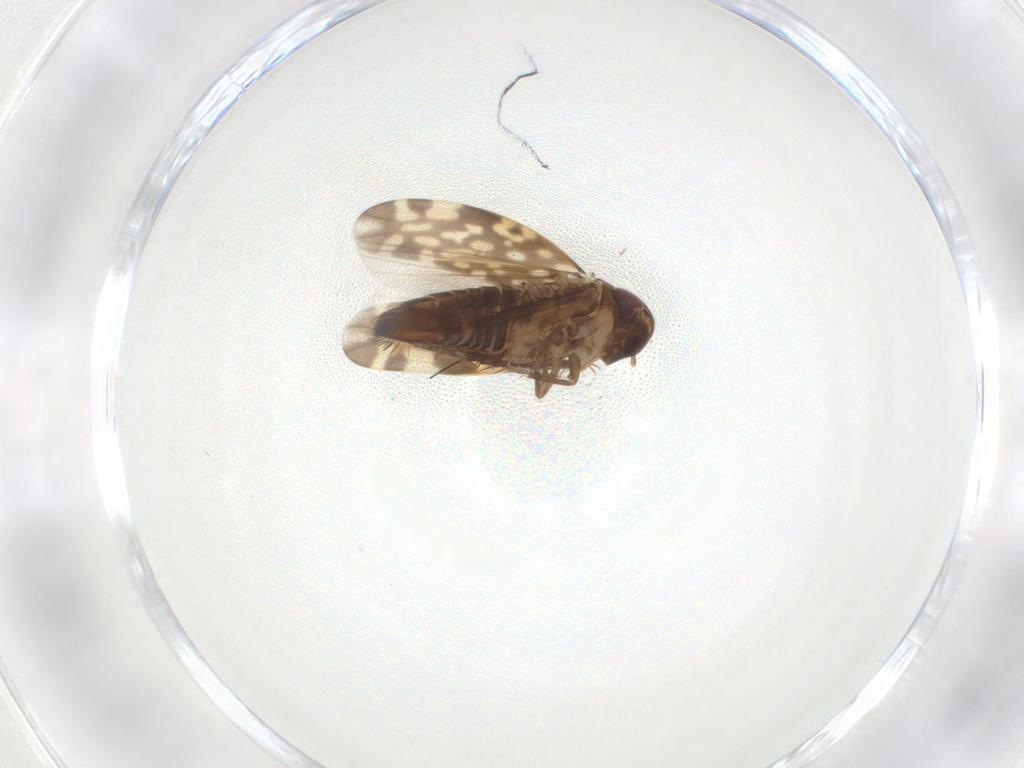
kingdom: Animalia
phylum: Arthropoda
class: Insecta
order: Hemiptera
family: Cicadellidae
